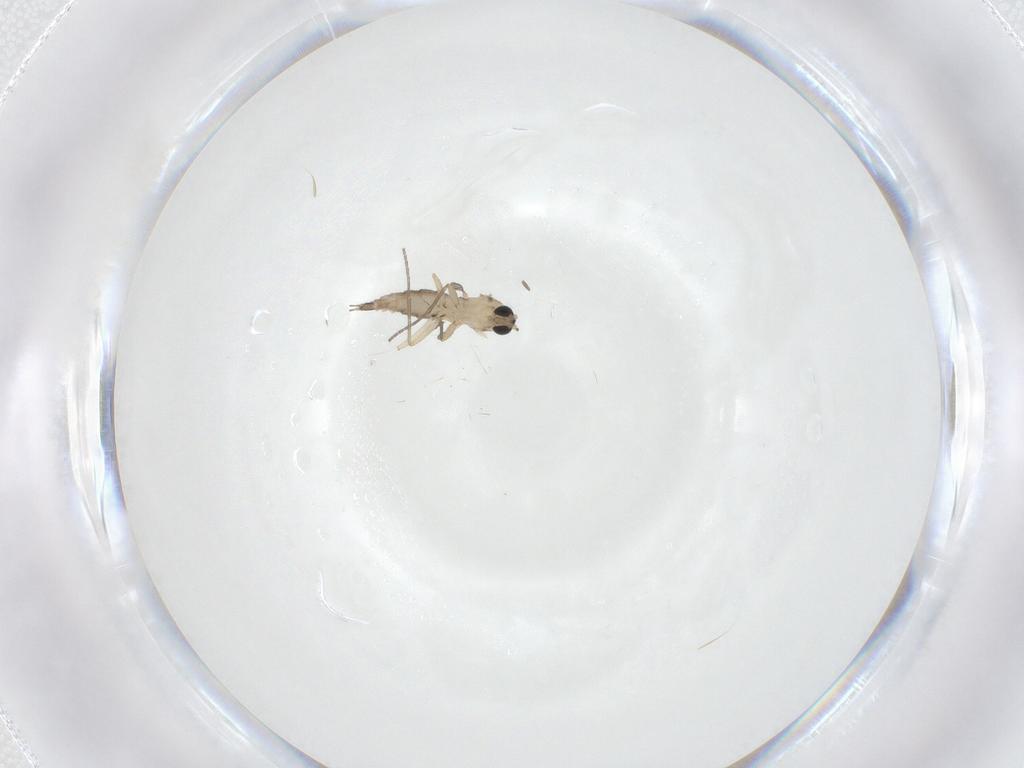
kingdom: Animalia
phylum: Arthropoda
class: Insecta
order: Diptera
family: Sciaridae
